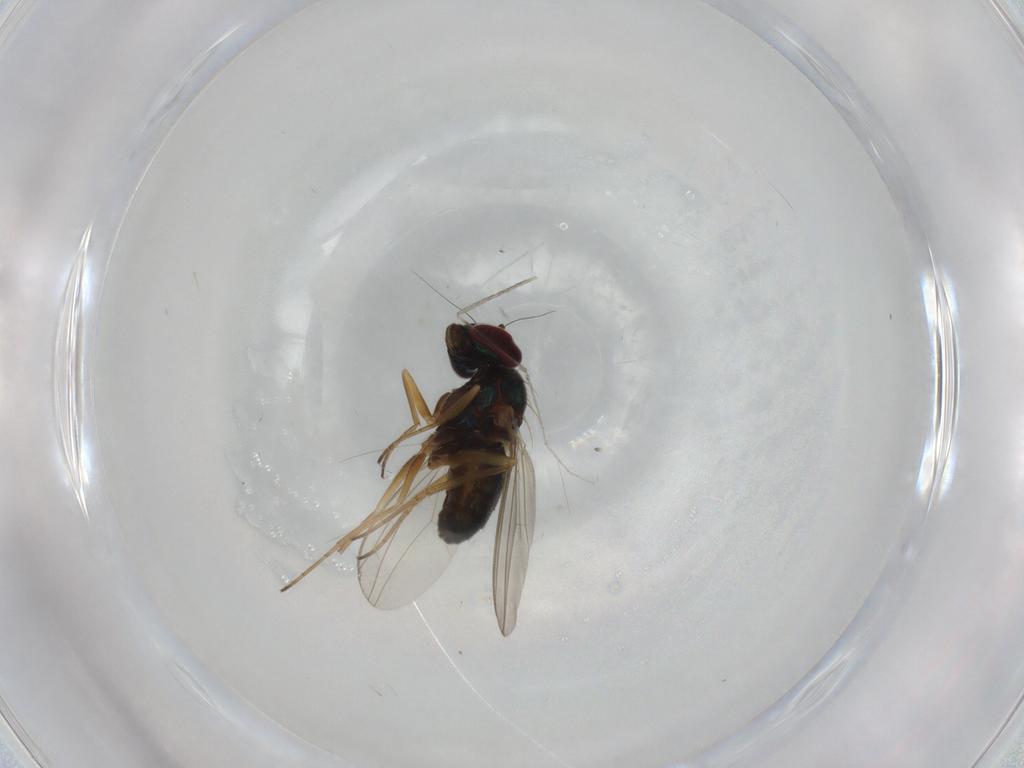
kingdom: Animalia
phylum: Arthropoda
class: Insecta
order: Diptera
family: Dolichopodidae
